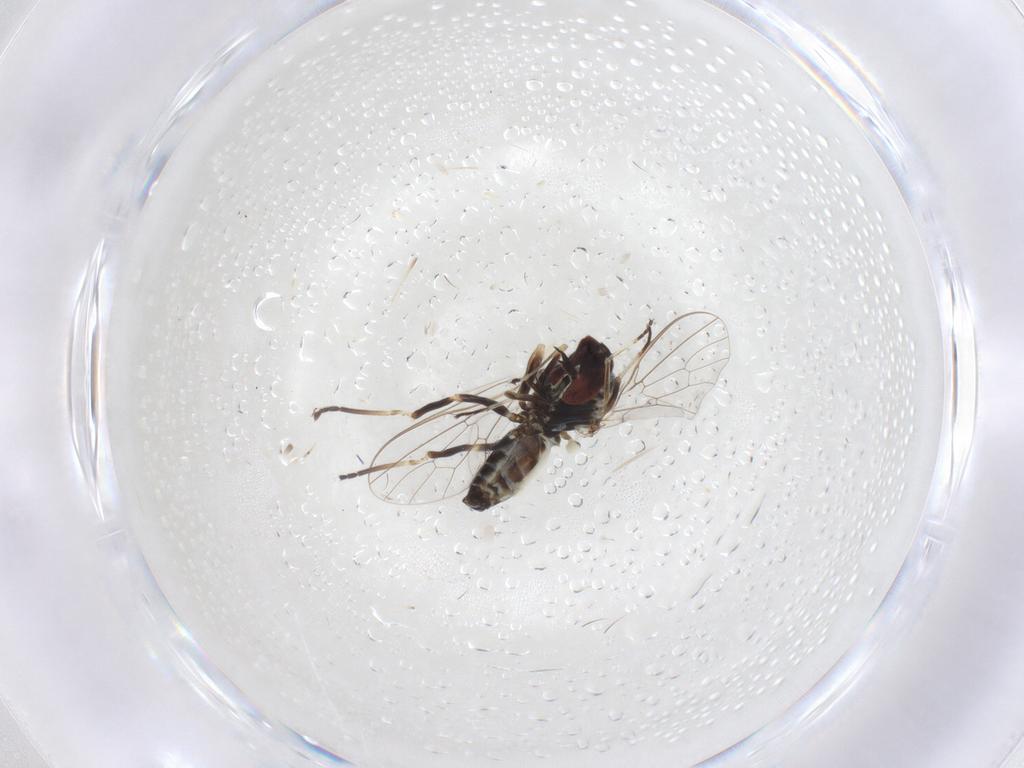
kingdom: Animalia
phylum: Arthropoda
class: Insecta
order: Diptera
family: Bombyliidae
